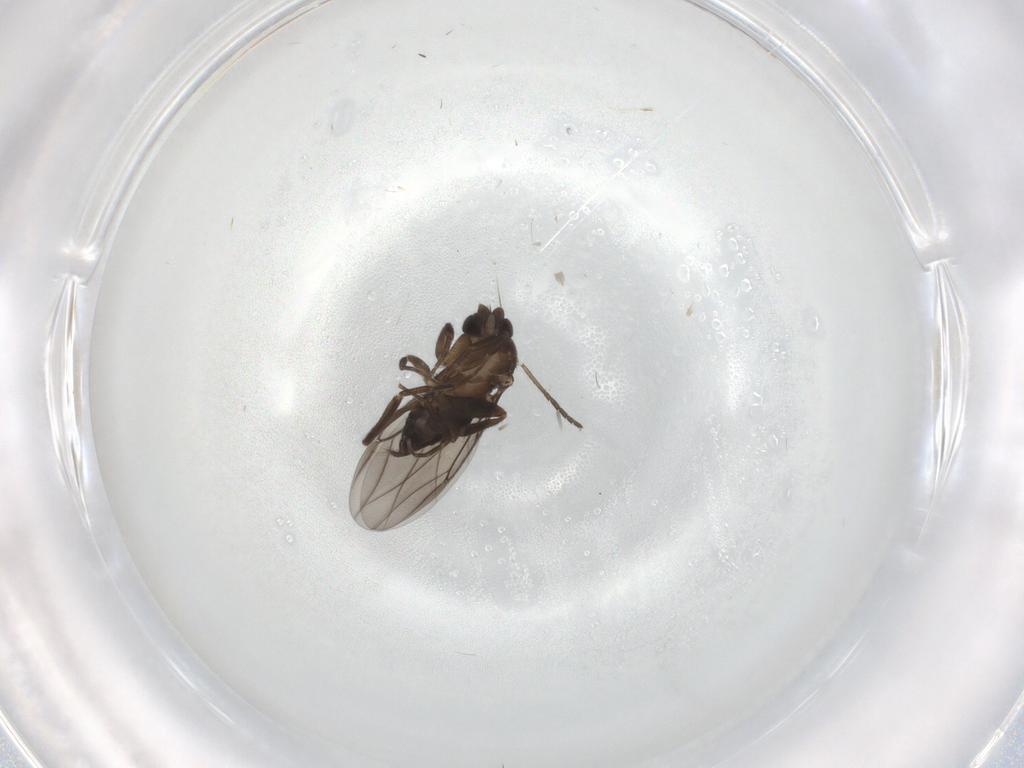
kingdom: Animalia
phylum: Arthropoda
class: Insecta
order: Diptera
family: Phoridae
